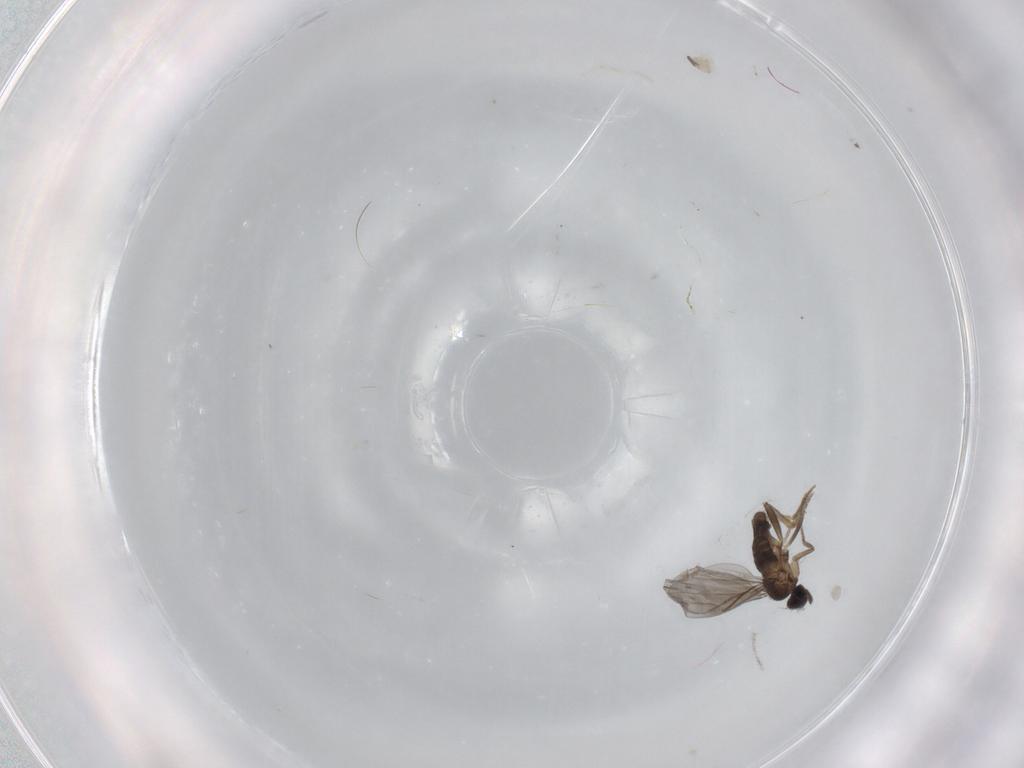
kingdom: Animalia
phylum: Arthropoda
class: Insecta
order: Diptera
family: Dolichopodidae
